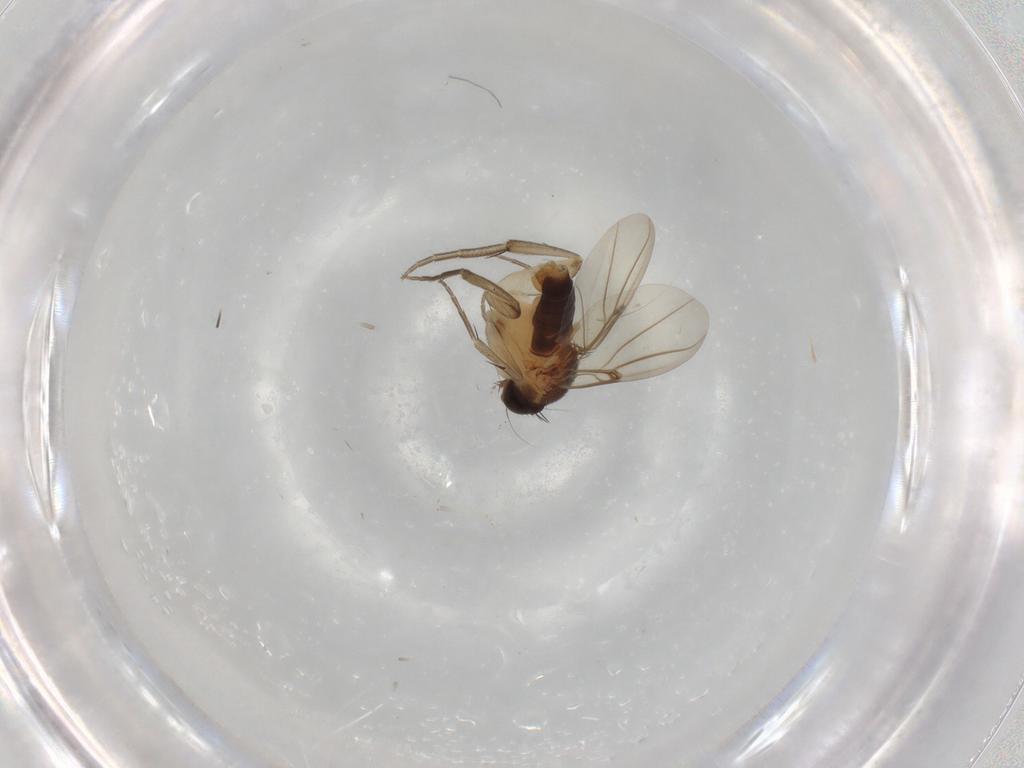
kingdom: Animalia
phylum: Arthropoda
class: Insecta
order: Diptera
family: Phoridae
